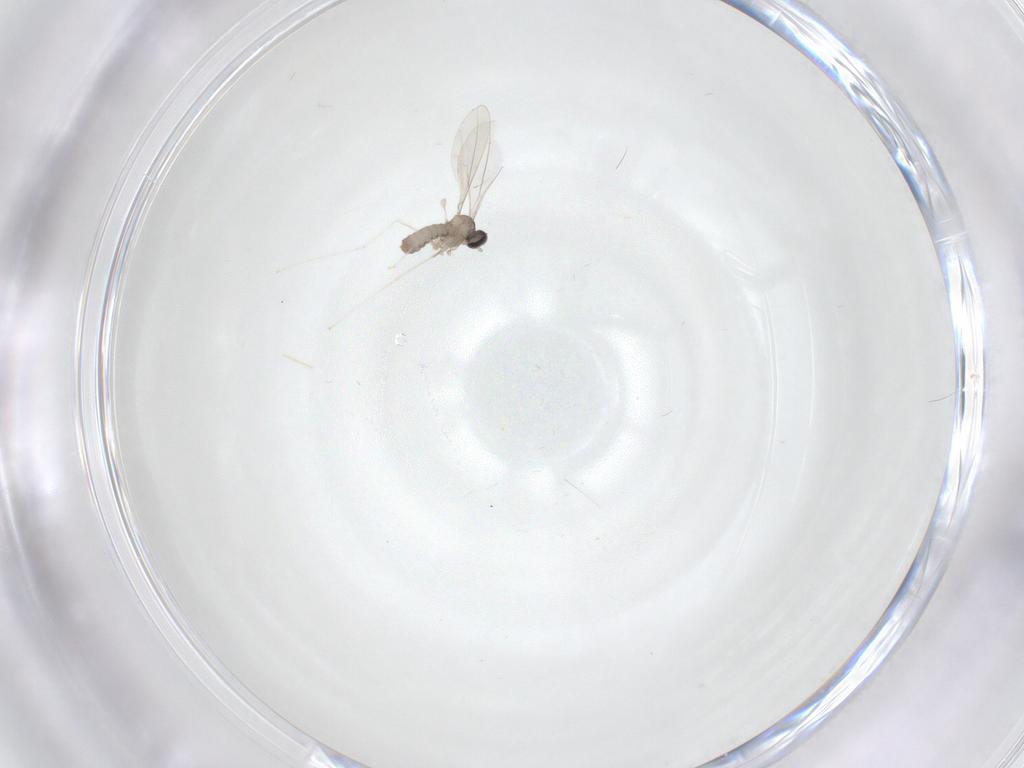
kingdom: Animalia
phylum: Arthropoda
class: Insecta
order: Diptera
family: Cecidomyiidae
